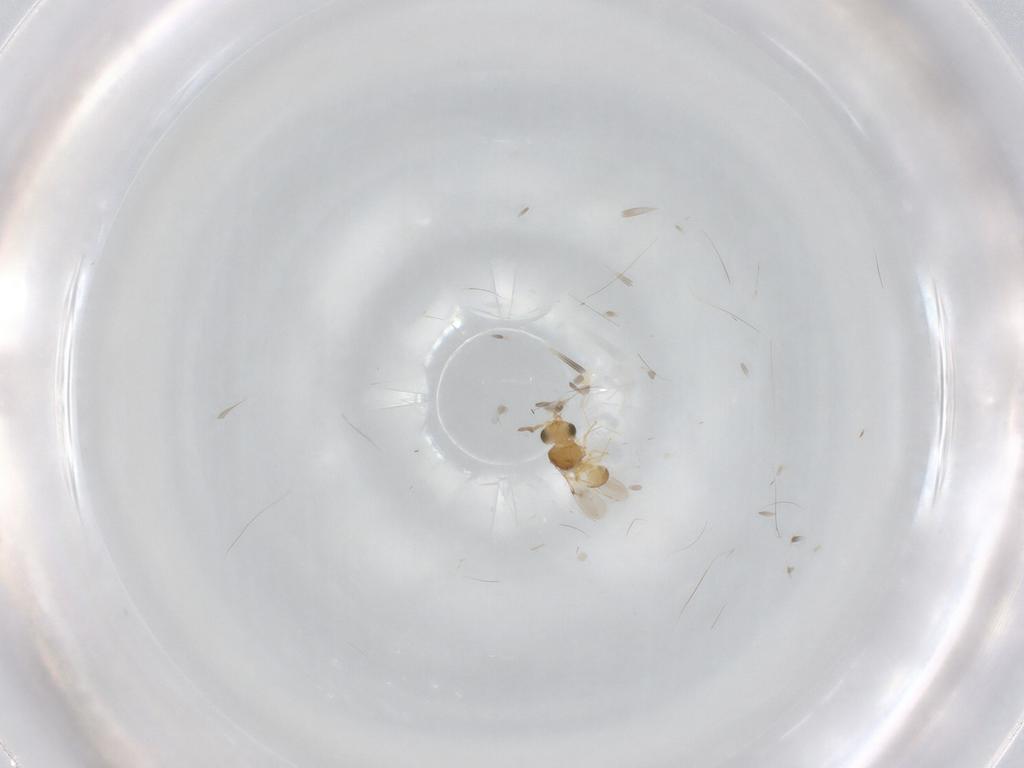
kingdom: Animalia
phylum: Arthropoda
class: Insecta
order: Hymenoptera
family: Scelionidae
